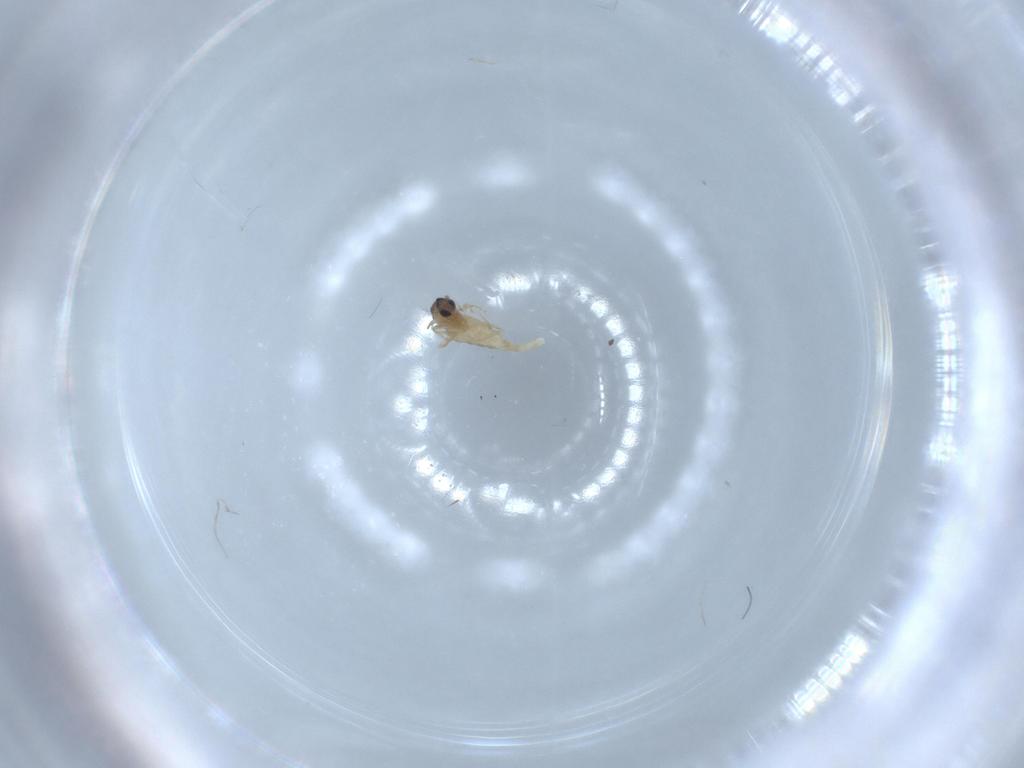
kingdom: Animalia
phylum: Arthropoda
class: Insecta
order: Diptera
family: Cecidomyiidae
